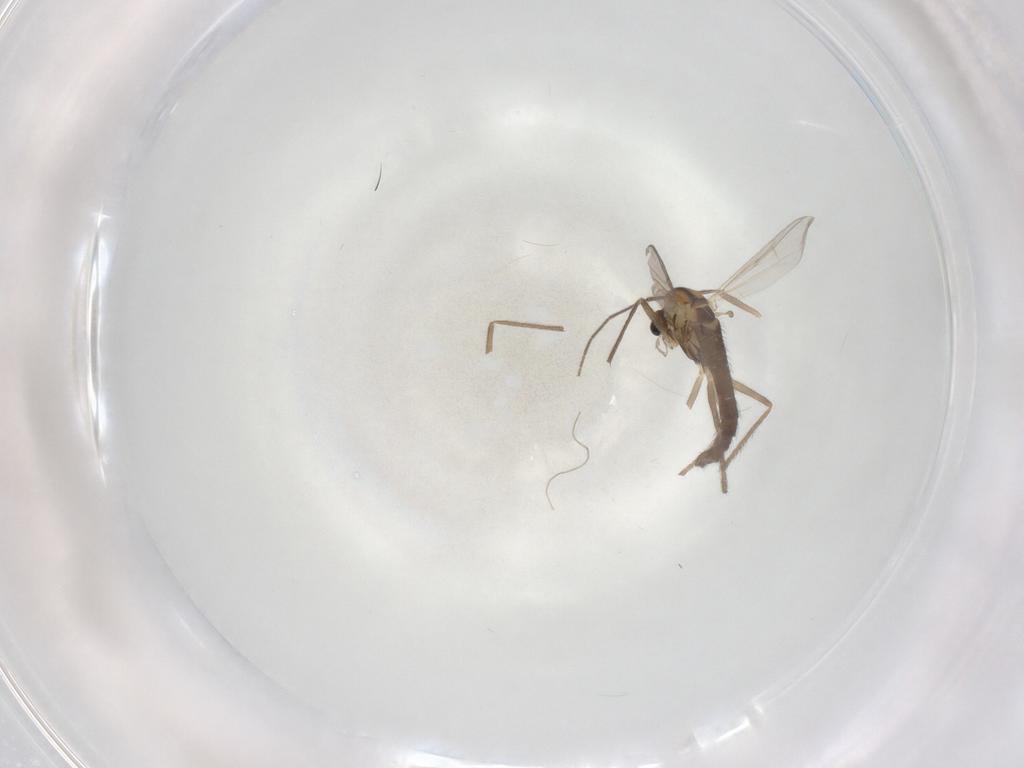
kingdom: Animalia
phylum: Arthropoda
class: Insecta
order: Diptera
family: Chironomidae
